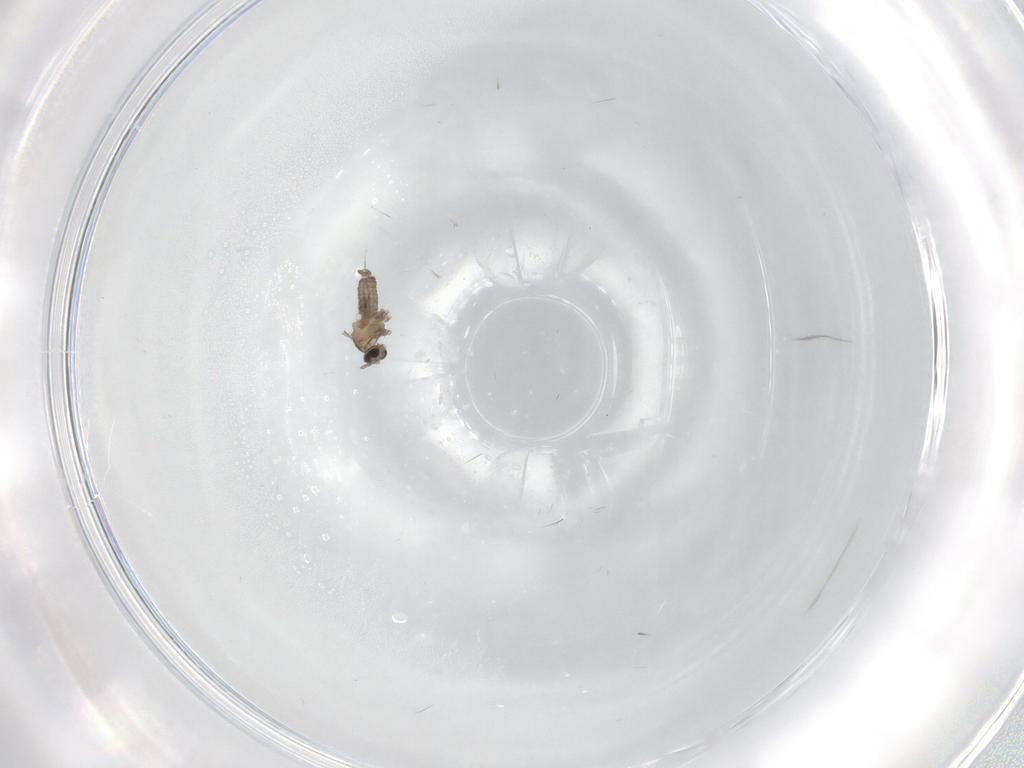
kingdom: Animalia
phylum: Arthropoda
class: Insecta
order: Diptera
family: Cecidomyiidae
